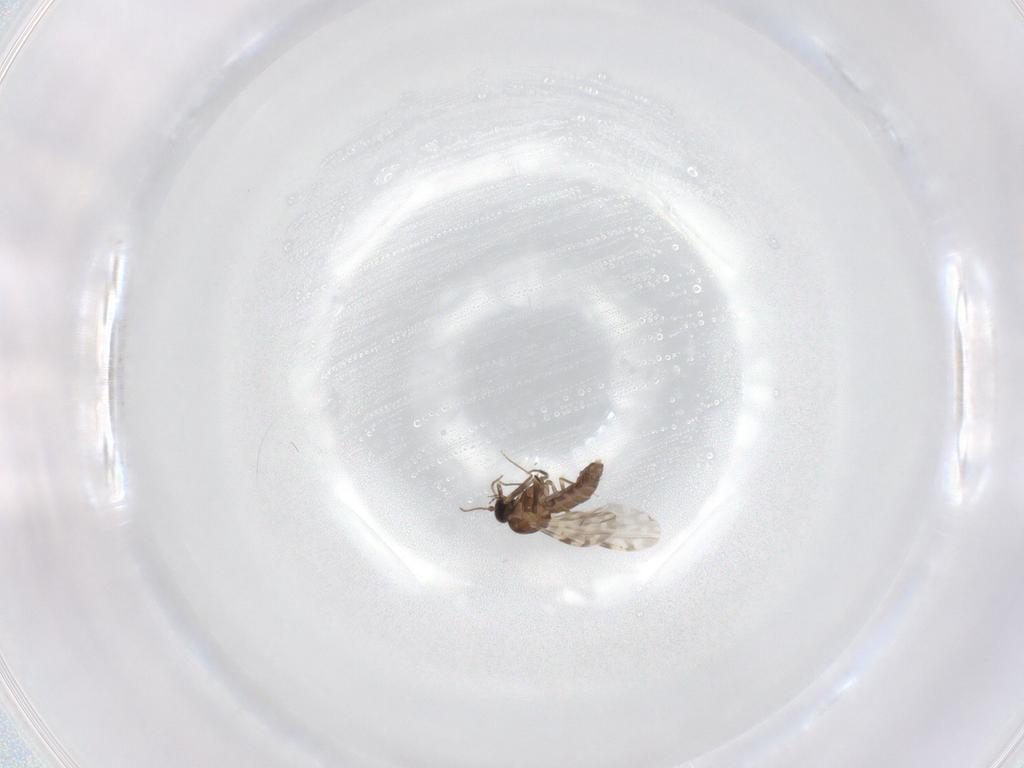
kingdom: Animalia
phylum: Arthropoda
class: Insecta
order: Diptera
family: Ceratopogonidae
